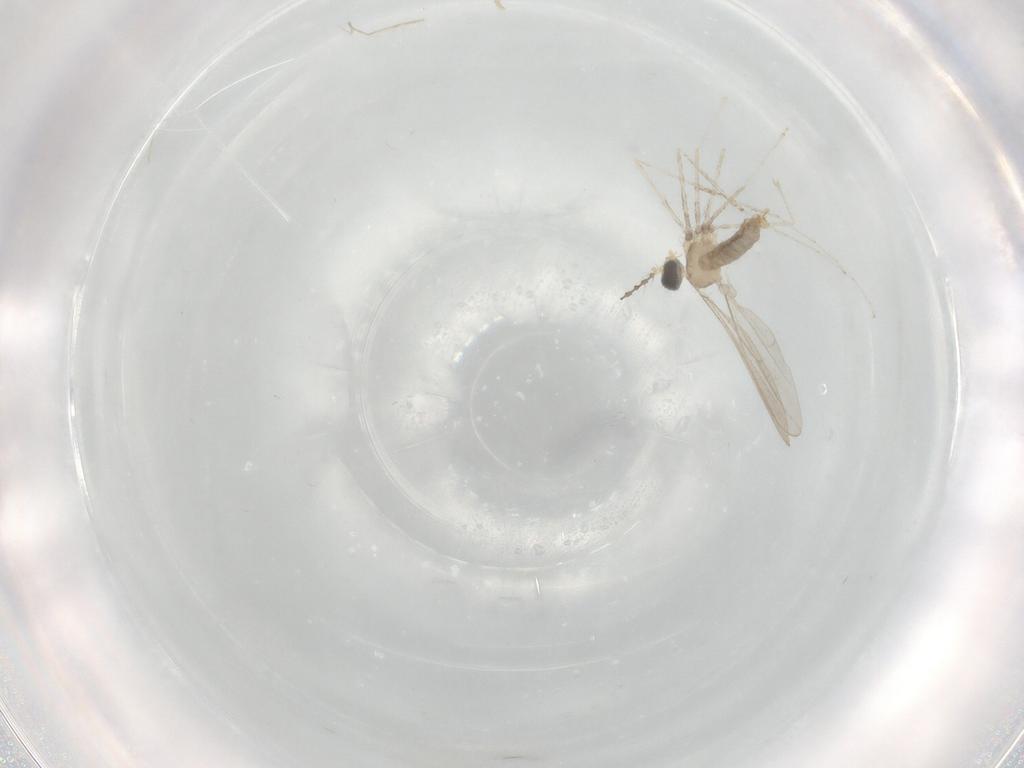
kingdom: Animalia
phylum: Arthropoda
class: Insecta
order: Diptera
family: Cecidomyiidae
